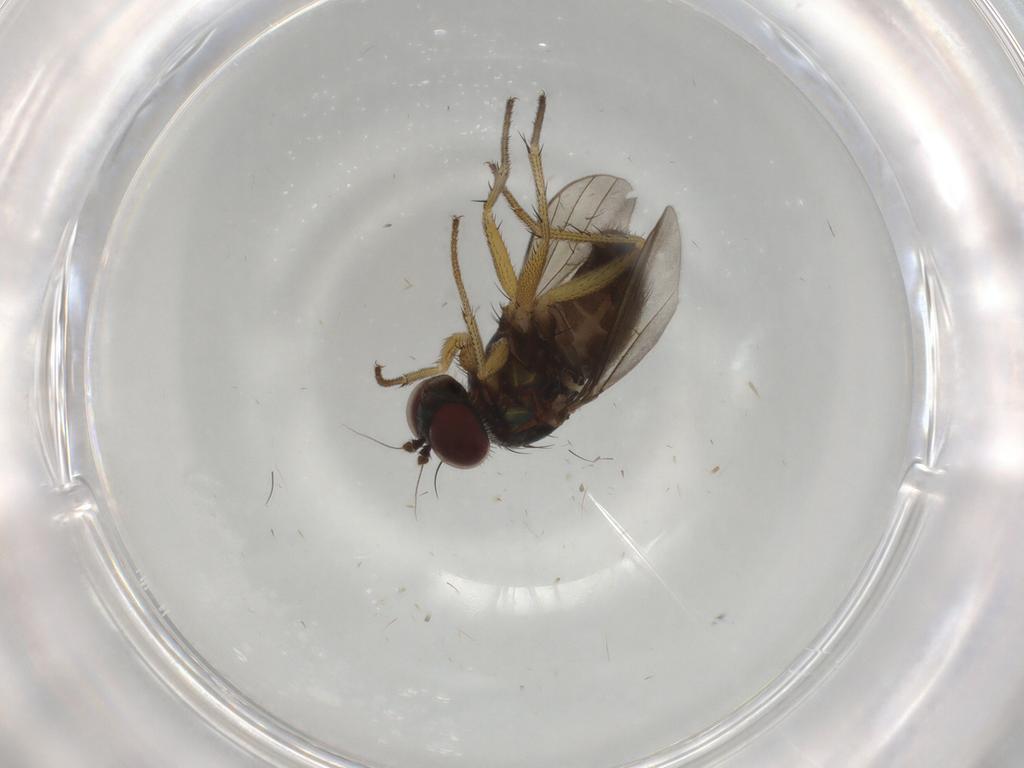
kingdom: Animalia
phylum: Arthropoda
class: Insecta
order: Diptera
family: Dolichopodidae
